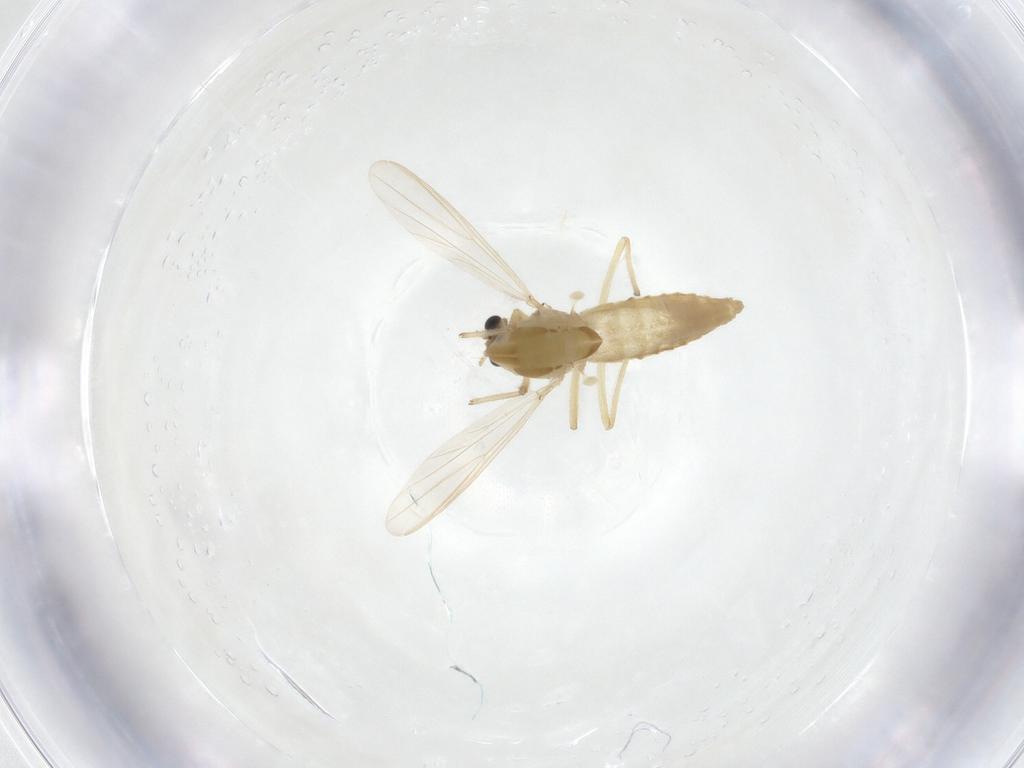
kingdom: Animalia
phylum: Arthropoda
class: Insecta
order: Diptera
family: Chironomidae
